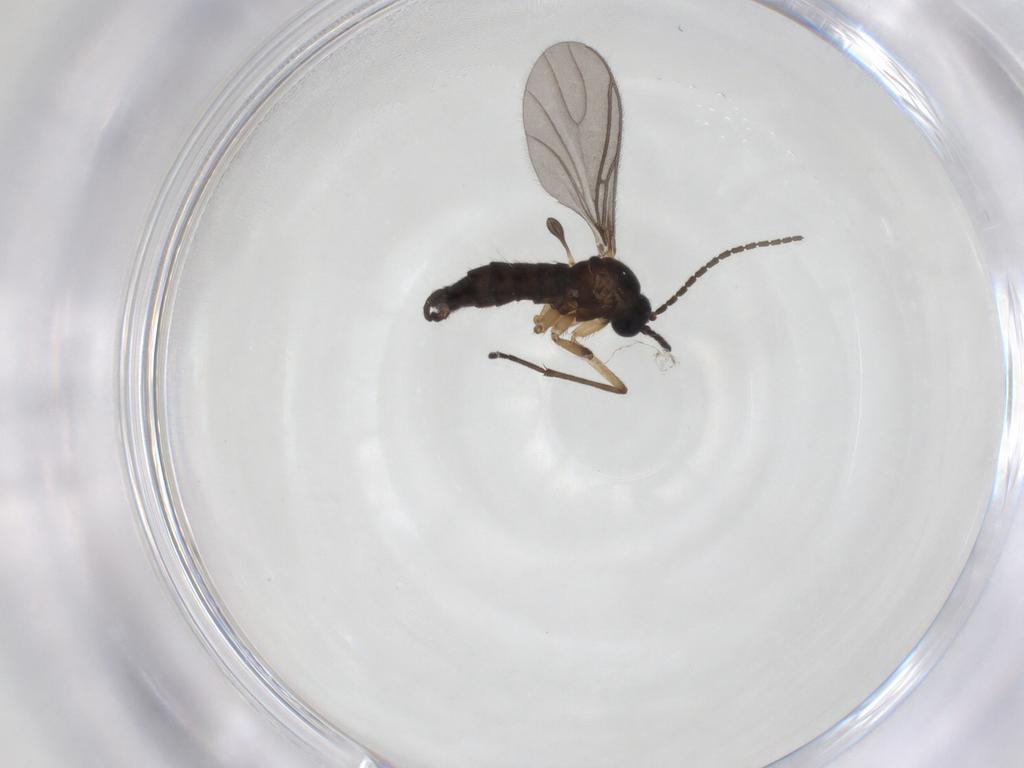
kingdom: Animalia
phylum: Arthropoda
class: Insecta
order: Diptera
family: Sciaridae
